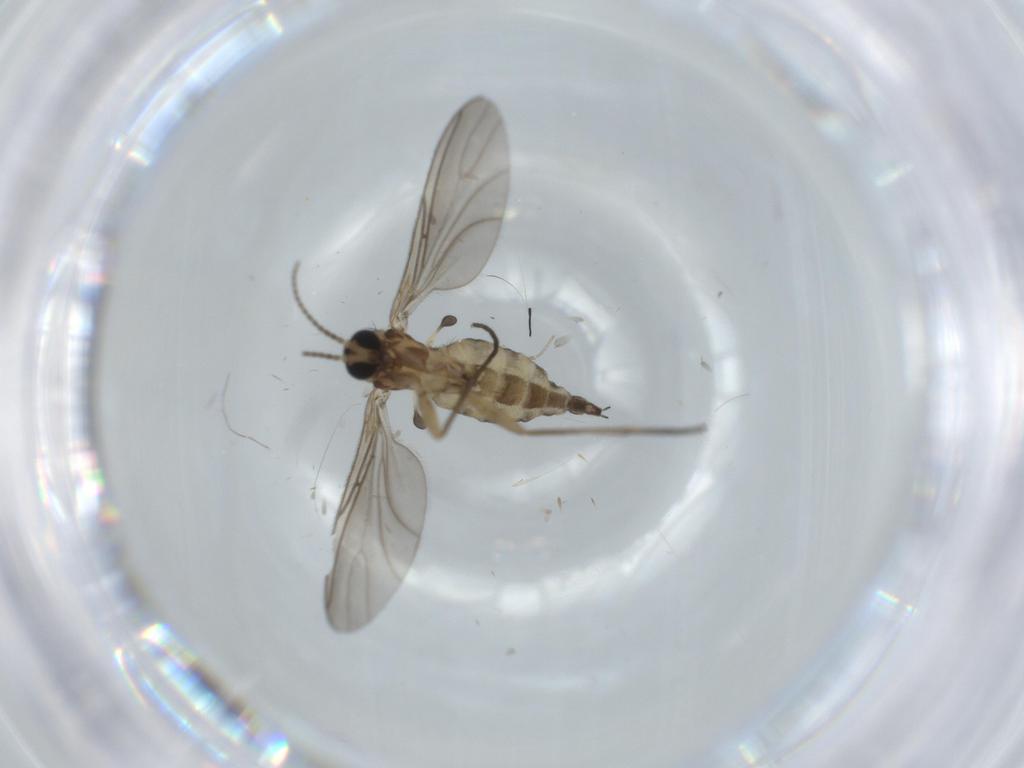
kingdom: Animalia
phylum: Arthropoda
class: Insecta
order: Diptera
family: Sciaridae
